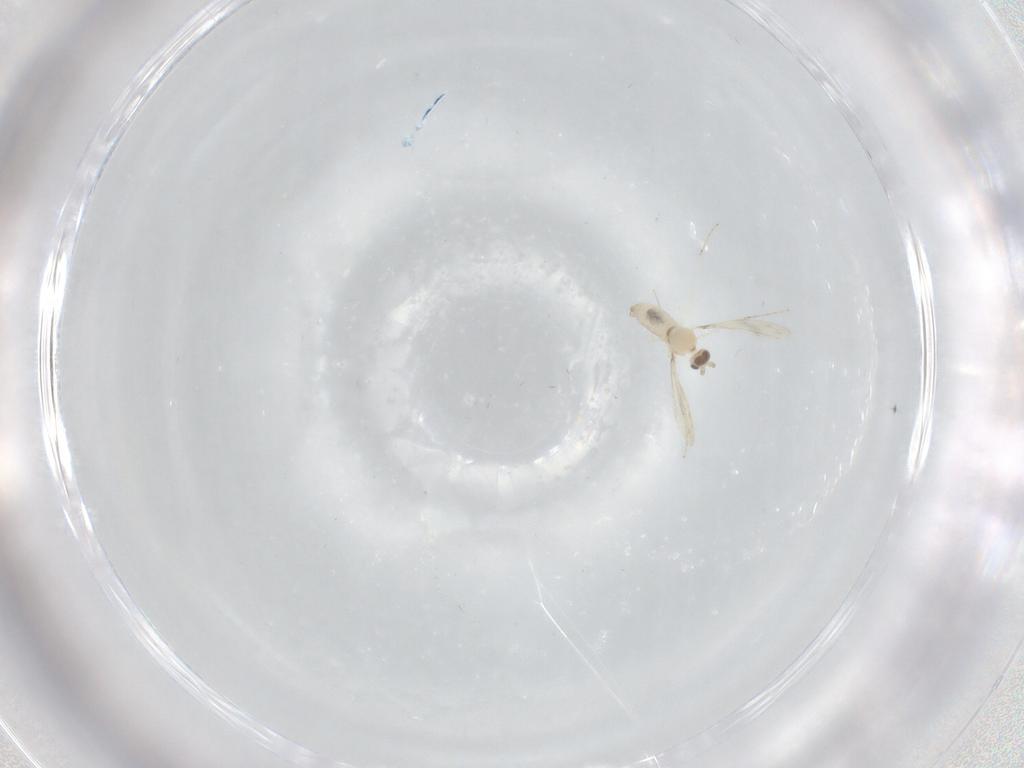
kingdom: Animalia
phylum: Arthropoda
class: Insecta
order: Diptera
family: Cecidomyiidae
